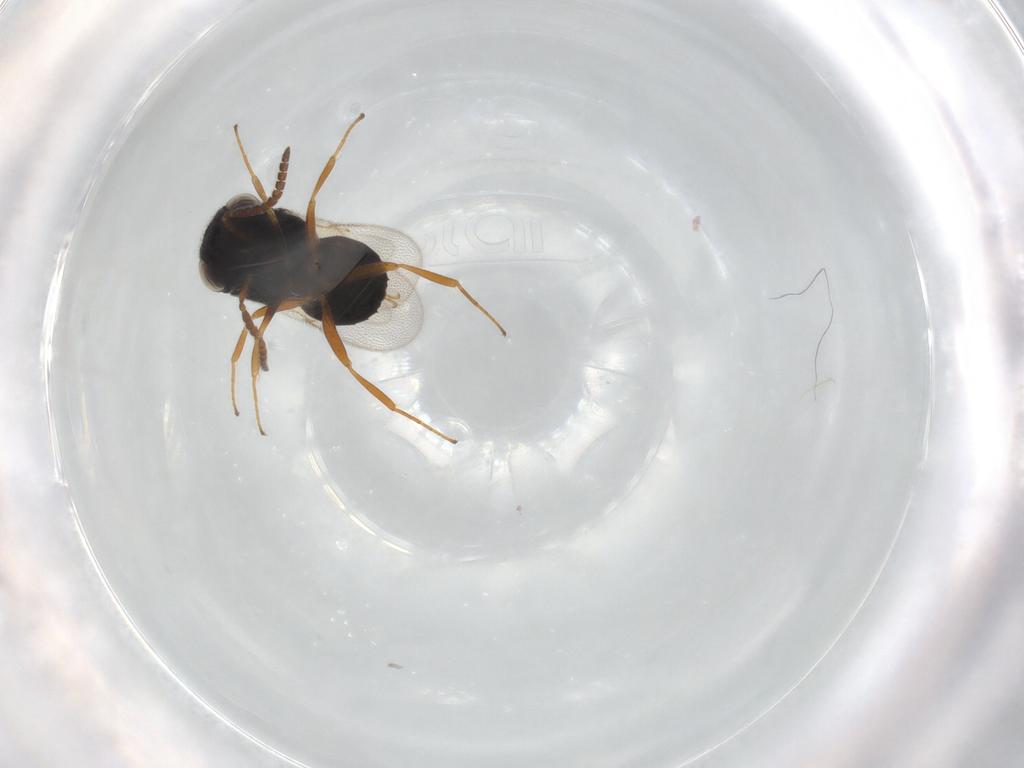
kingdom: Animalia
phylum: Arthropoda
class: Insecta
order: Hymenoptera
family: Scelionidae
